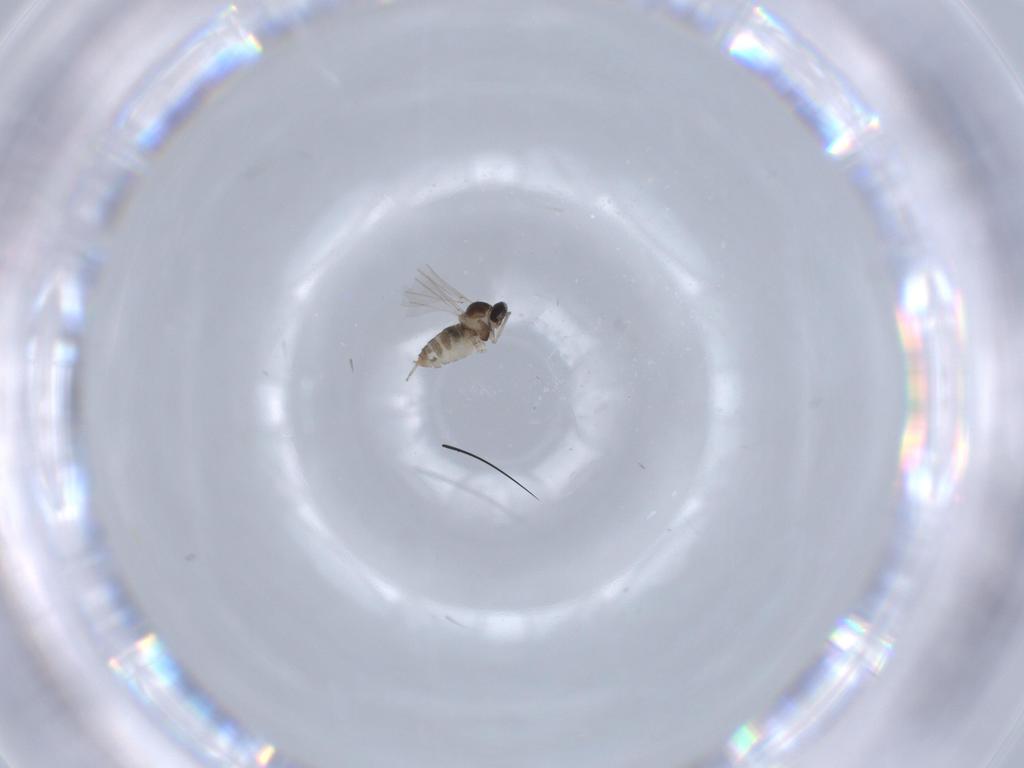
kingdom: Animalia
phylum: Arthropoda
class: Insecta
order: Diptera
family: Cecidomyiidae
